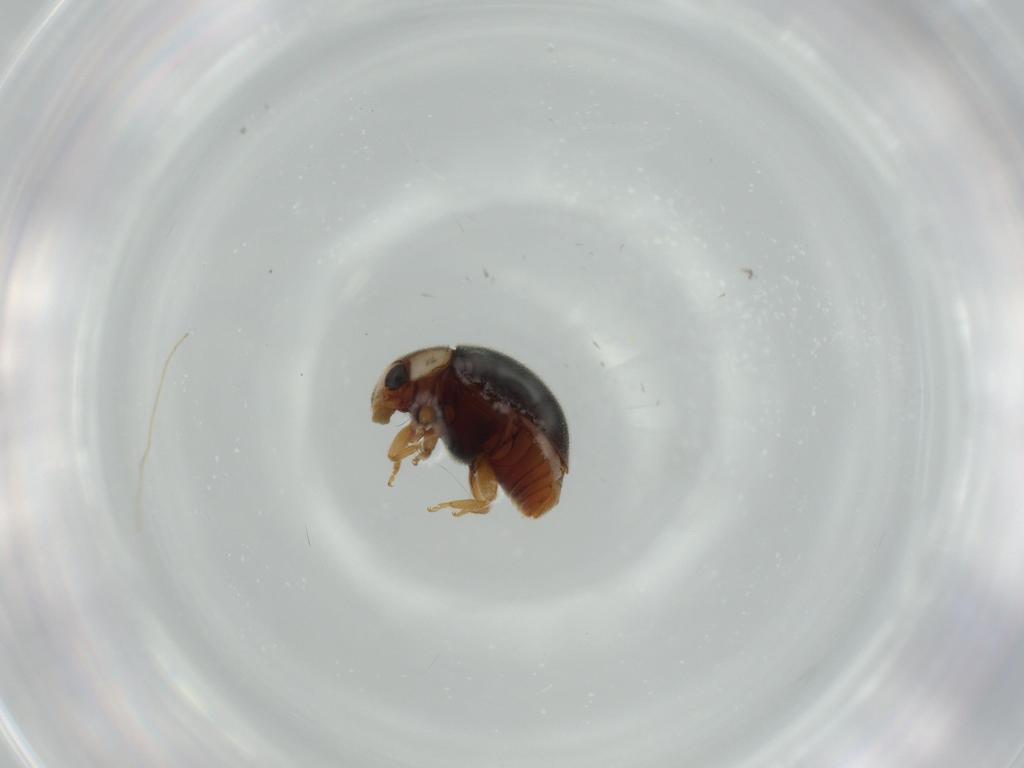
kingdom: Animalia
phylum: Arthropoda
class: Insecta
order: Coleoptera
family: Coccinellidae
